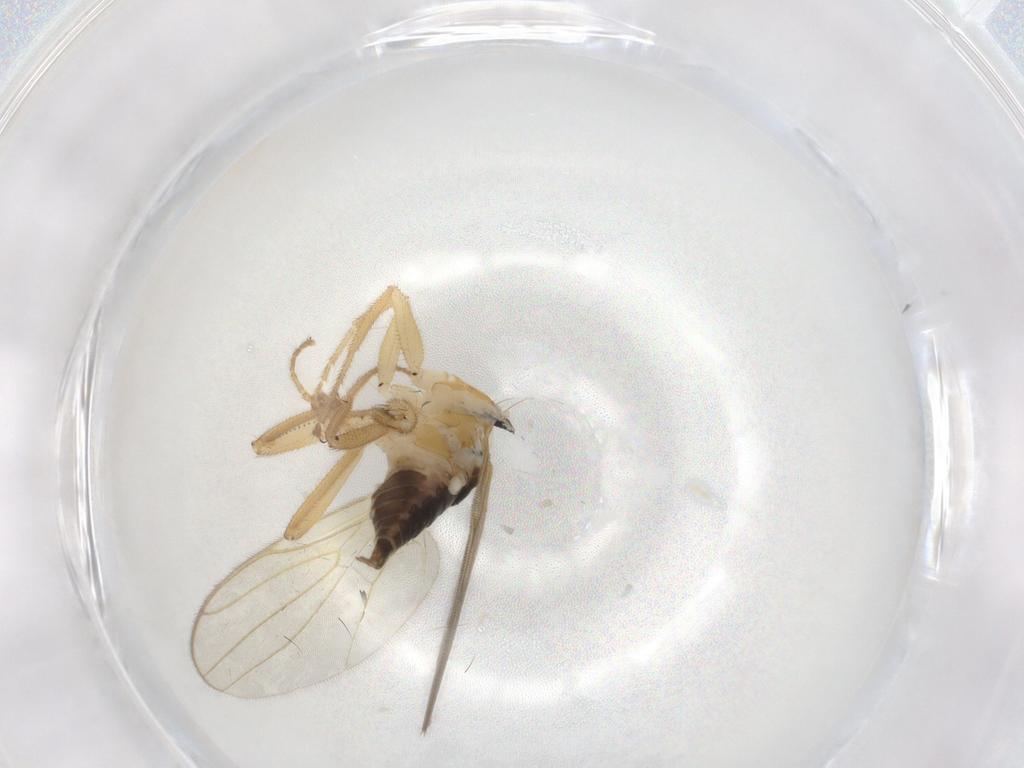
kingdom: Animalia
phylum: Arthropoda
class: Insecta
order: Diptera
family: Hybotidae
